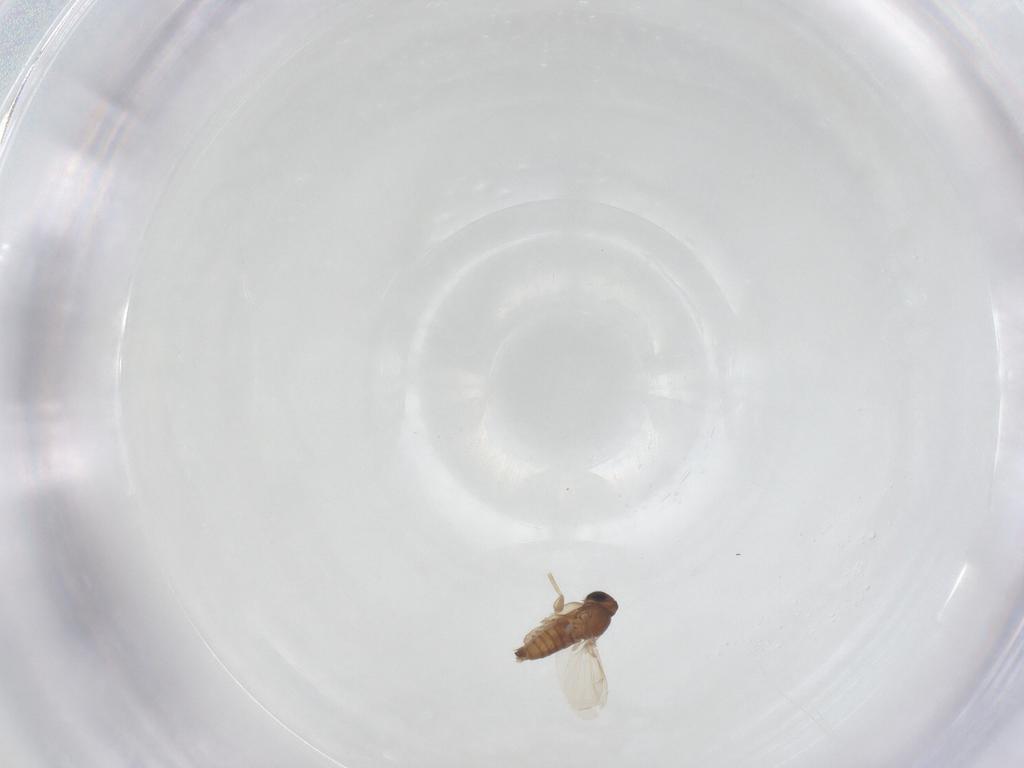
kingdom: Animalia
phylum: Arthropoda
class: Insecta
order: Diptera
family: Phoridae
